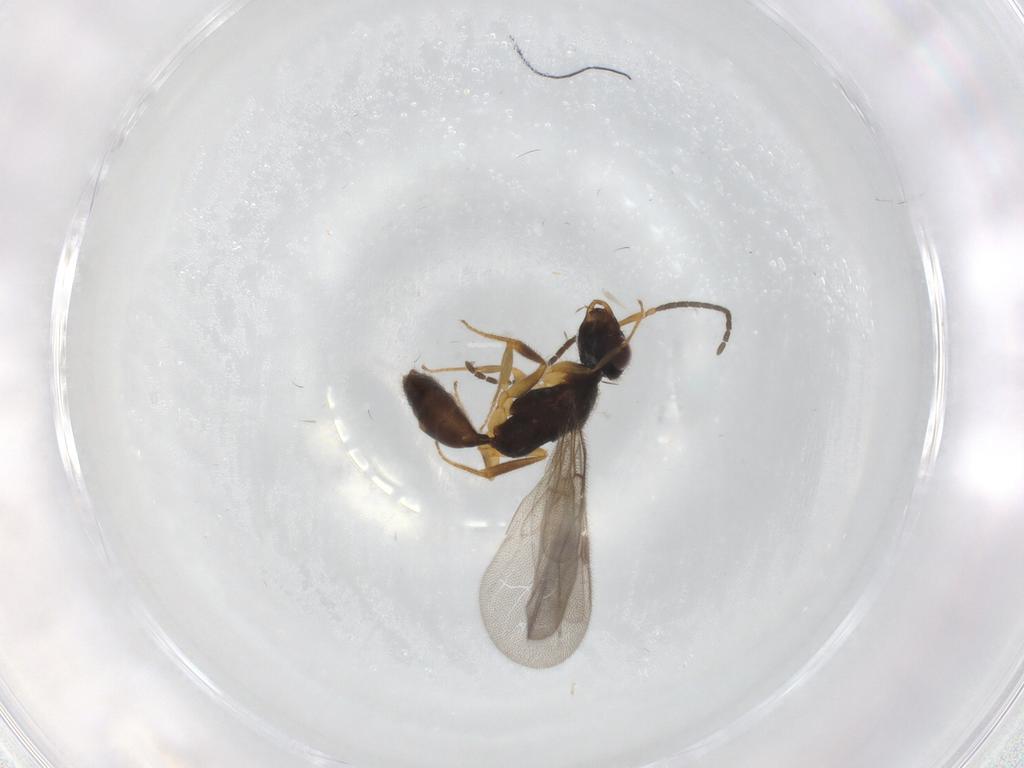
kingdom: Animalia
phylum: Arthropoda
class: Insecta
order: Hymenoptera
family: Bethylidae
